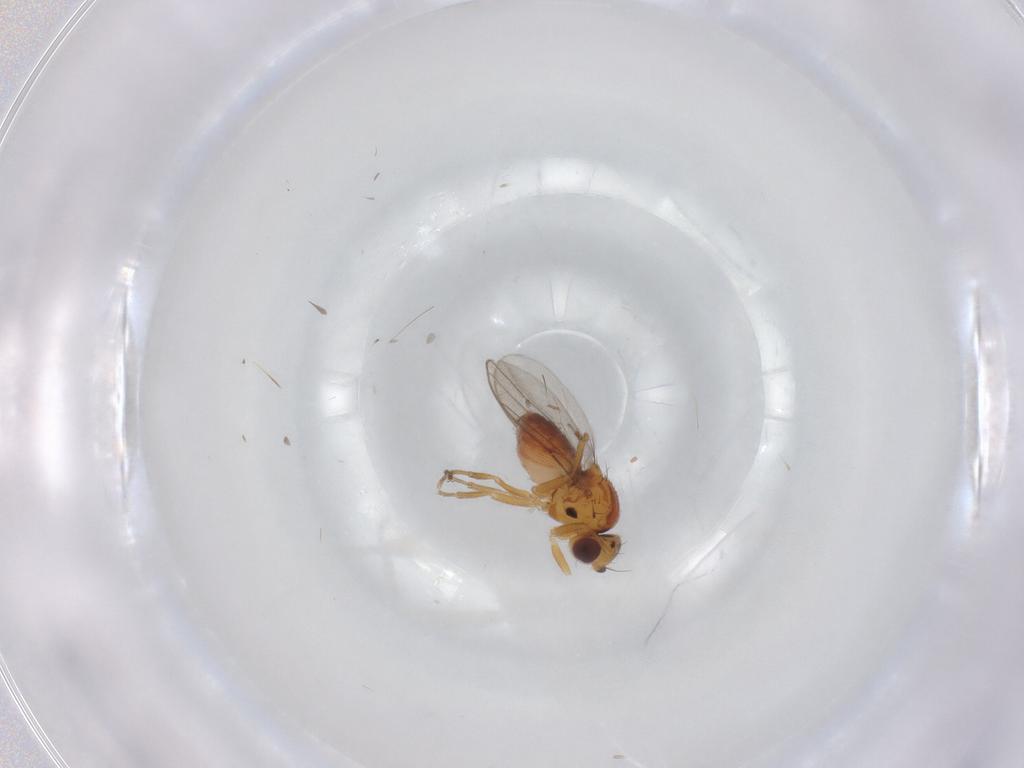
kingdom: Animalia
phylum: Arthropoda
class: Insecta
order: Diptera
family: Chloropidae
